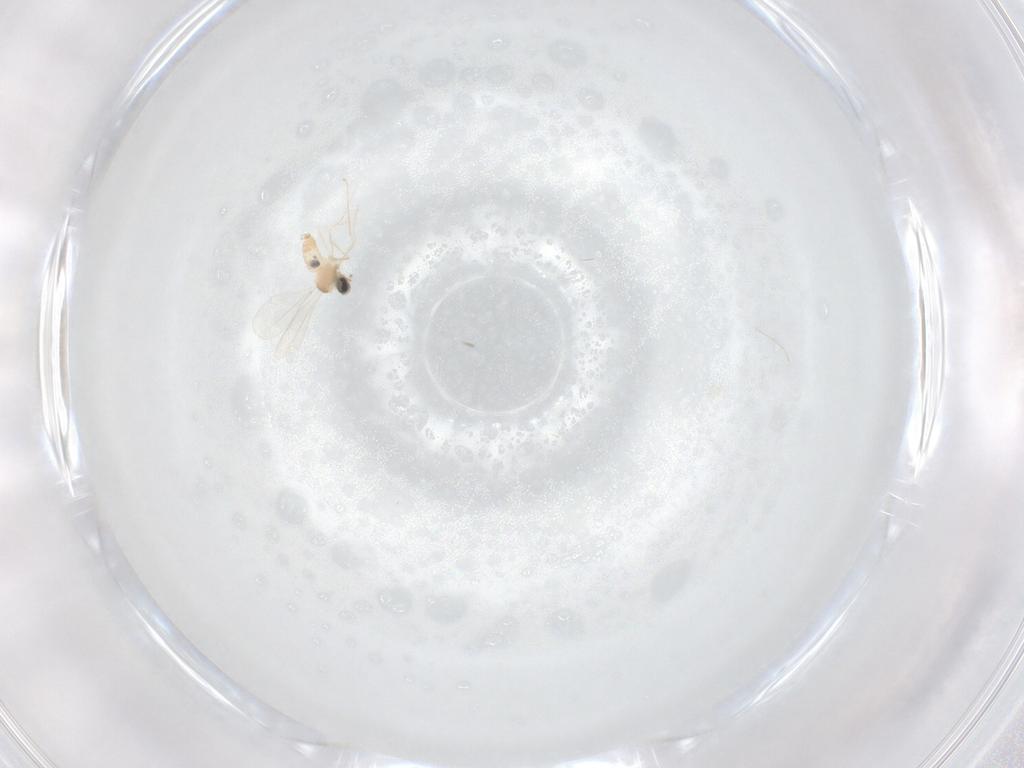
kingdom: Animalia
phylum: Arthropoda
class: Insecta
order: Diptera
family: Cecidomyiidae
